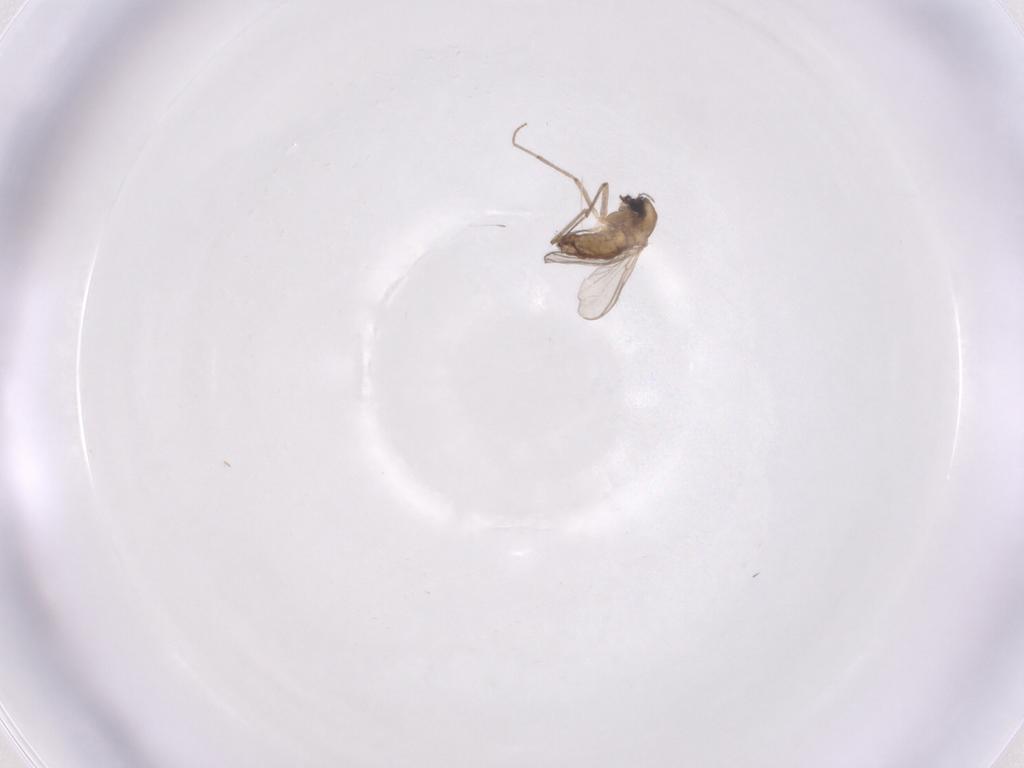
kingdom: Animalia
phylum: Arthropoda
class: Insecta
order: Diptera
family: Chironomidae
